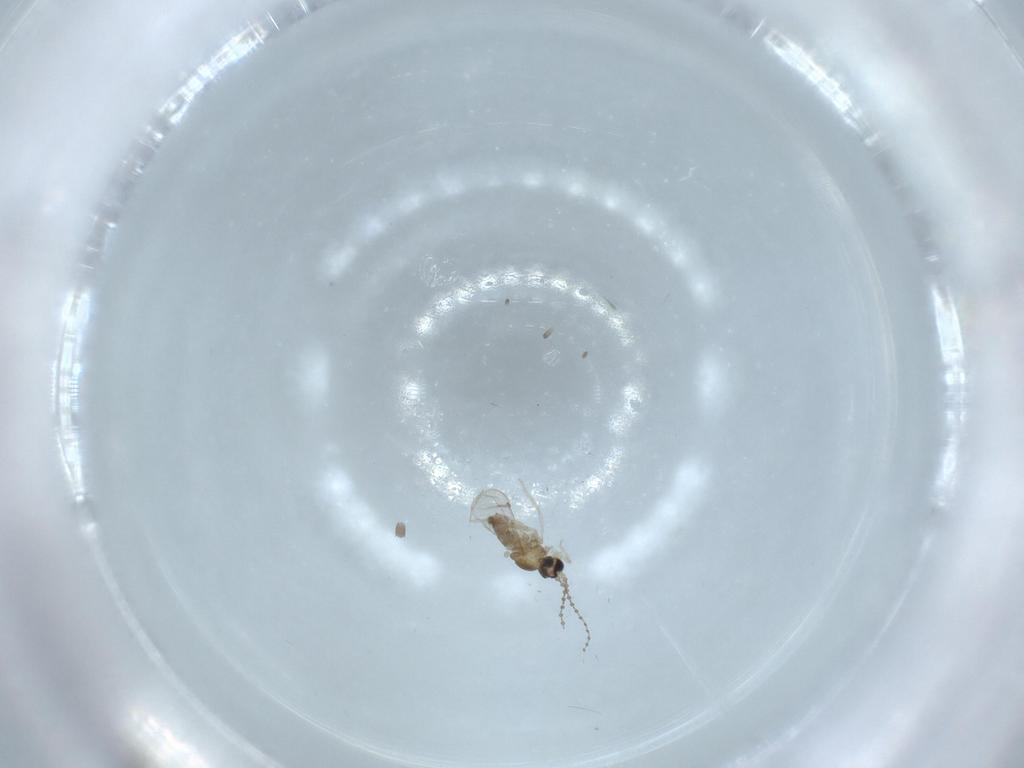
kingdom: Animalia
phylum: Arthropoda
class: Insecta
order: Diptera
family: Cecidomyiidae
